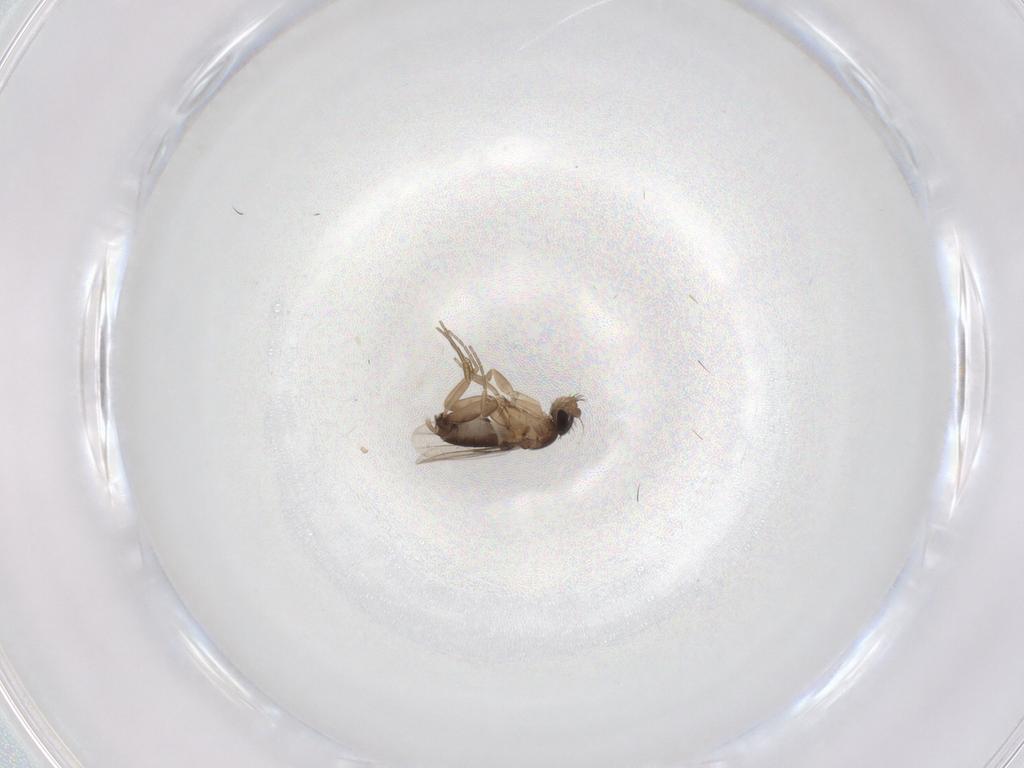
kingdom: Animalia
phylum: Arthropoda
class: Insecta
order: Diptera
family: Phoridae
